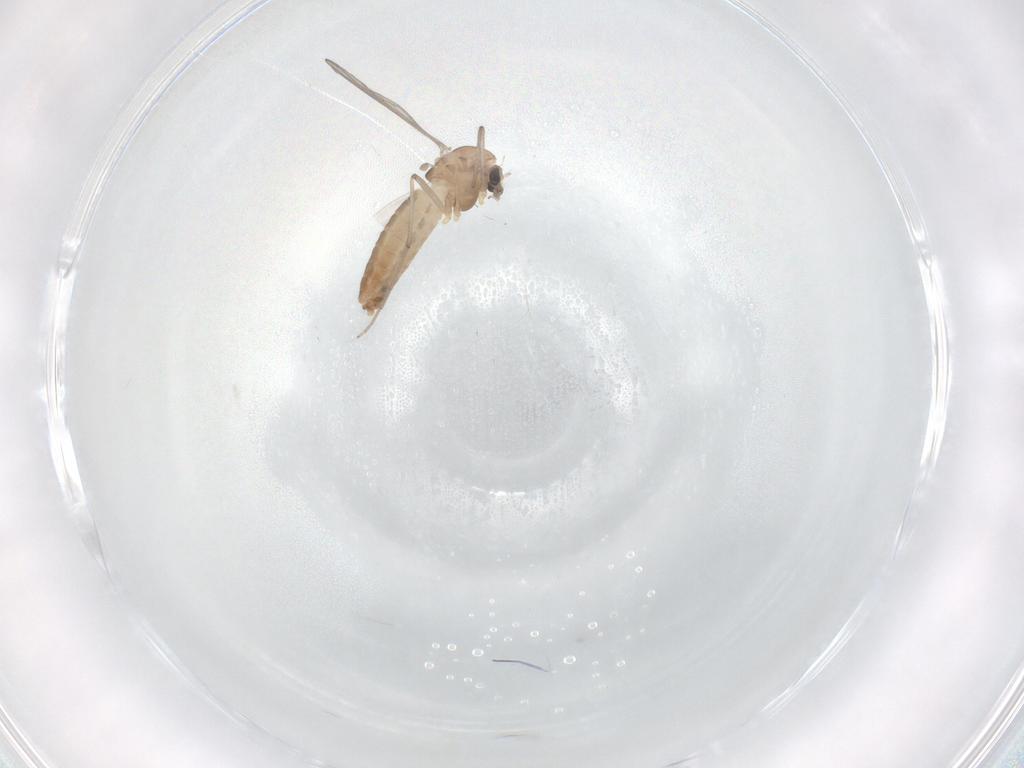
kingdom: Animalia
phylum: Arthropoda
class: Insecta
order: Diptera
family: Chironomidae
